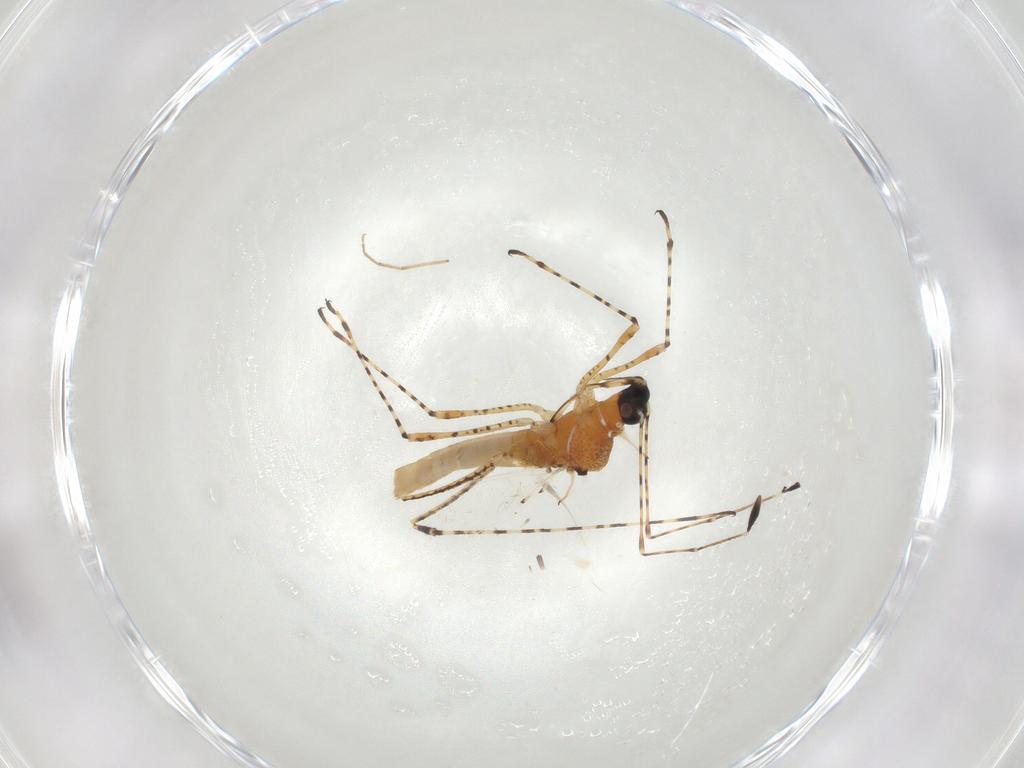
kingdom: Animalia
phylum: Arthropoda
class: Insecta
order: Hemiptera
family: Berytidae
